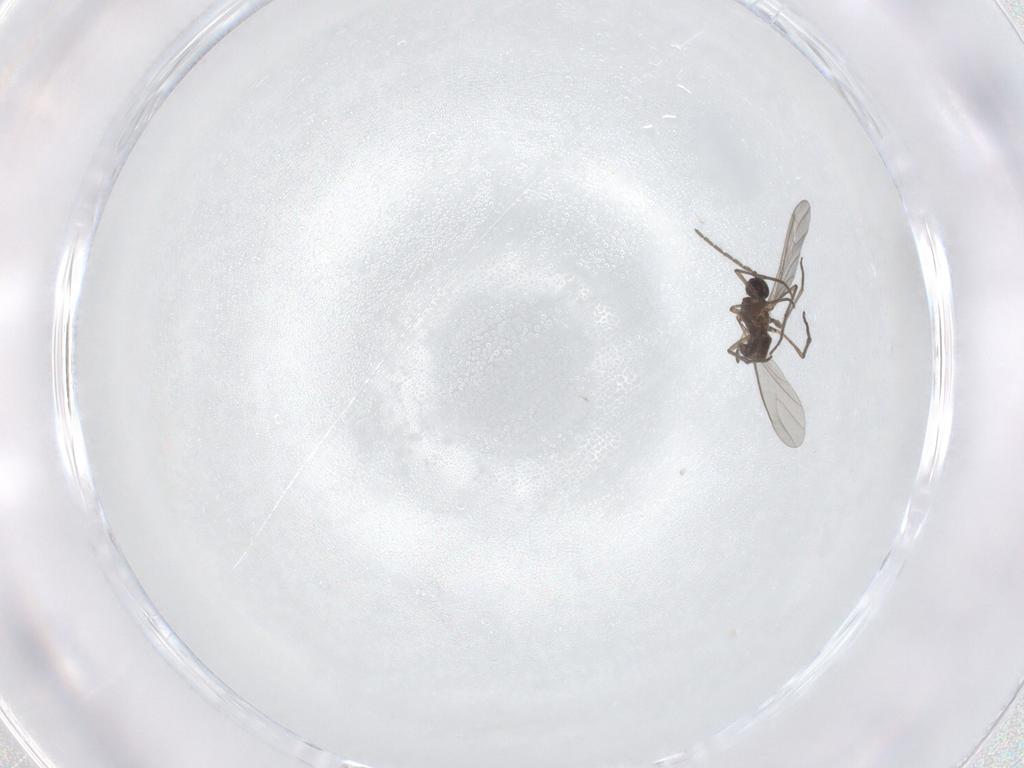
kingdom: Animalia
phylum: Arthropoda
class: Insecta
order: Diptera
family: Sciaridae
